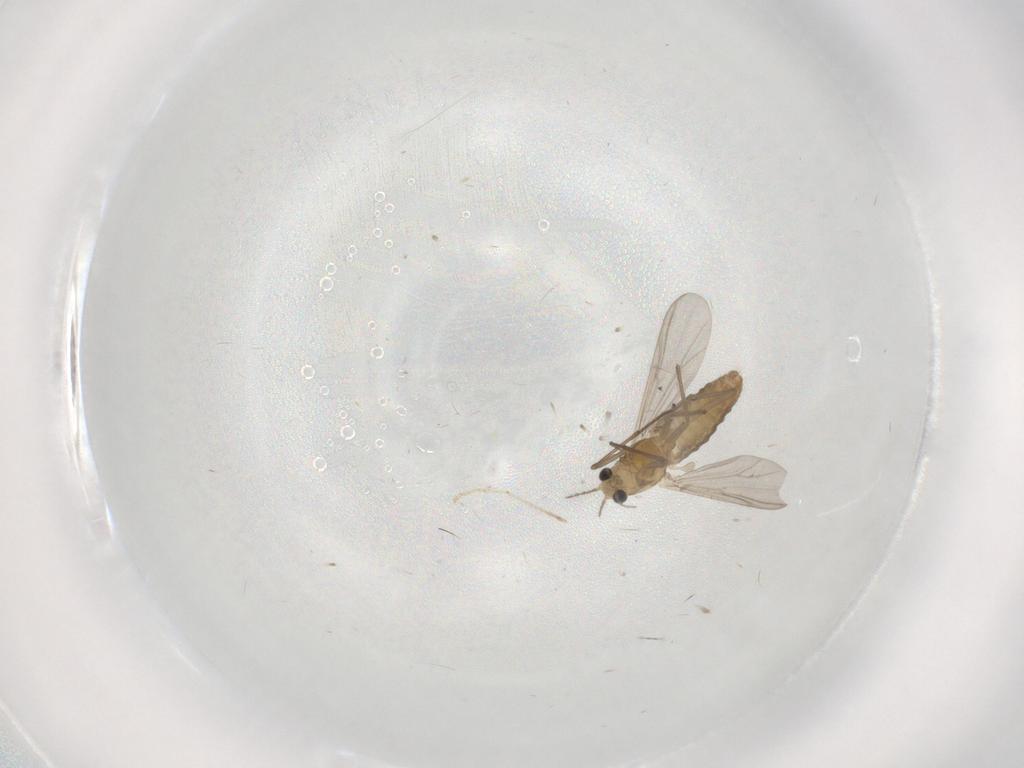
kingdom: Animalia
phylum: Arthropoda
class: Insecta
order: Diptera
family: Chironomidae
